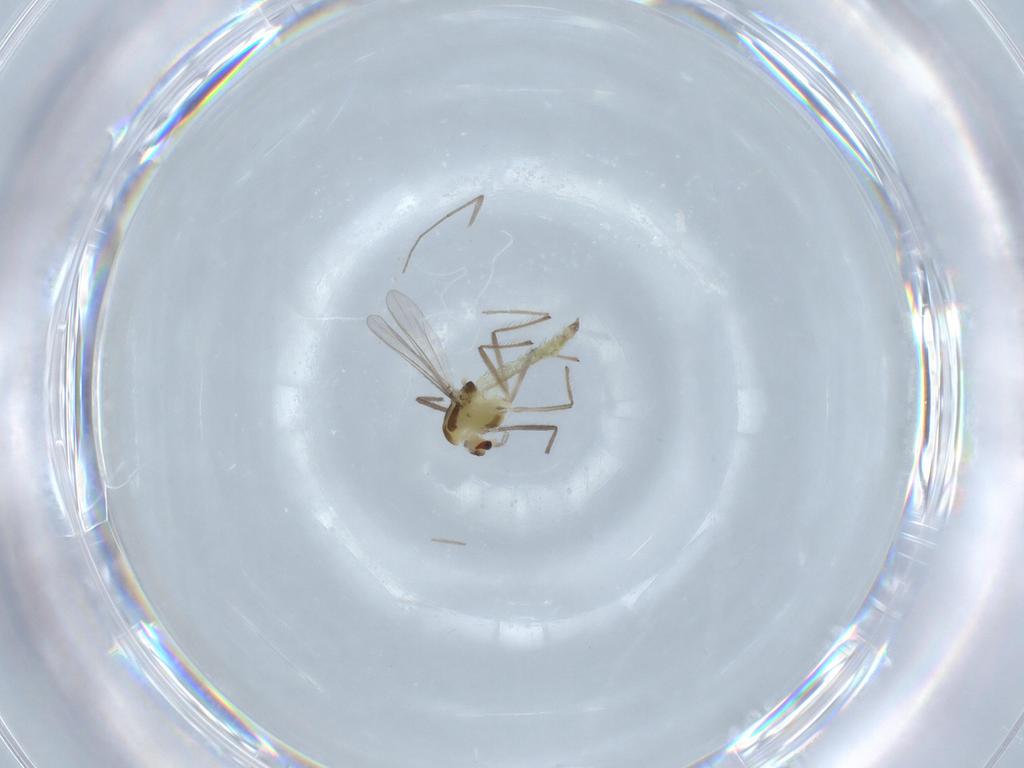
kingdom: Animalia
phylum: Arthropoda
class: Insecta
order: Diptera
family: Chironomidae
